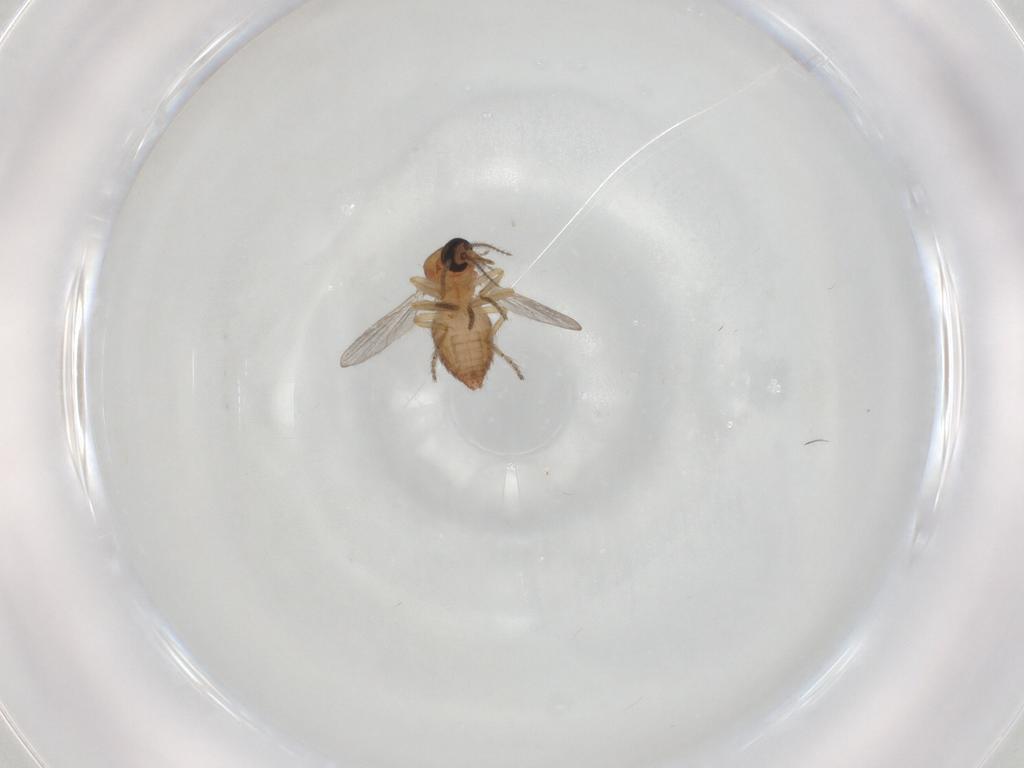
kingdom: Animalia
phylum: Arthropoda
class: Insecta
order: Diptera
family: Ceratopogonidae
